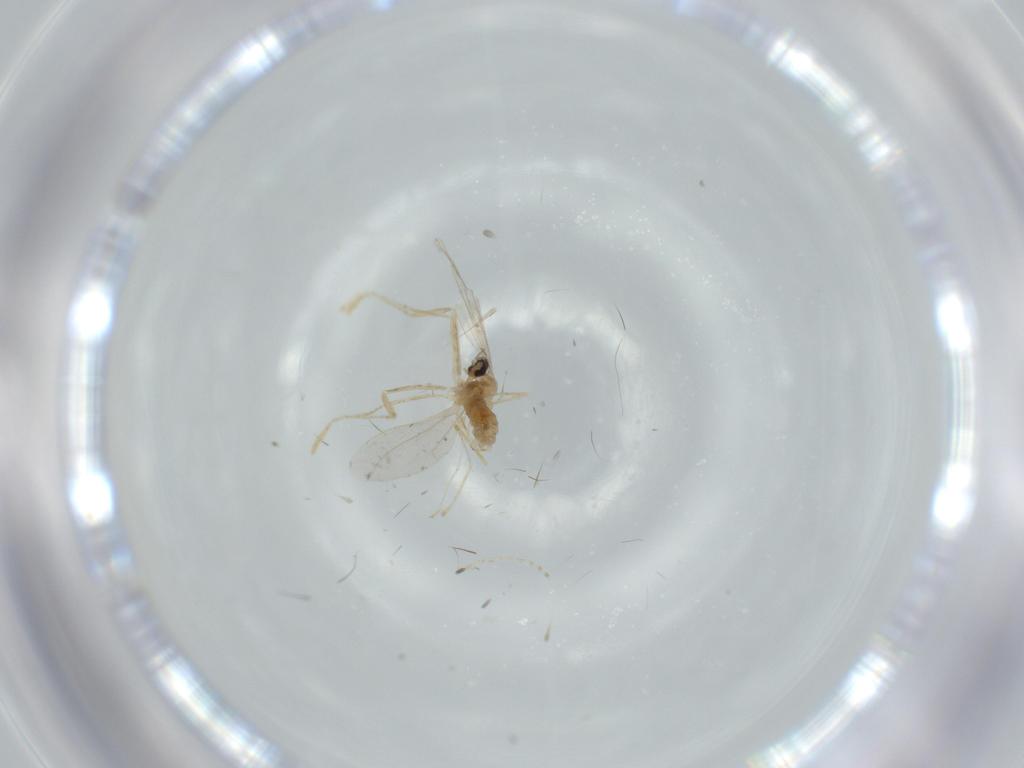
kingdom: Animalia
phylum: Arthropoda
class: Insecta
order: Diptera
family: Cecidomyiidae
